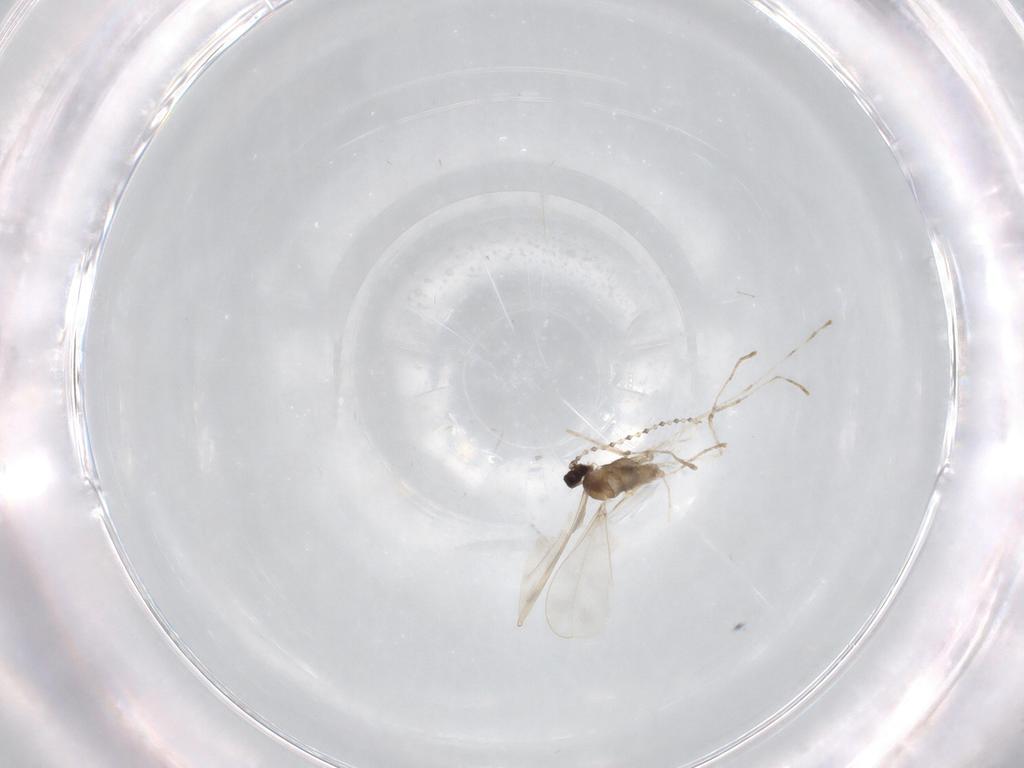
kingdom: Animalia
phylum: Arthropoda
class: Insecta
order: Diptera
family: Cecidomyiidae
